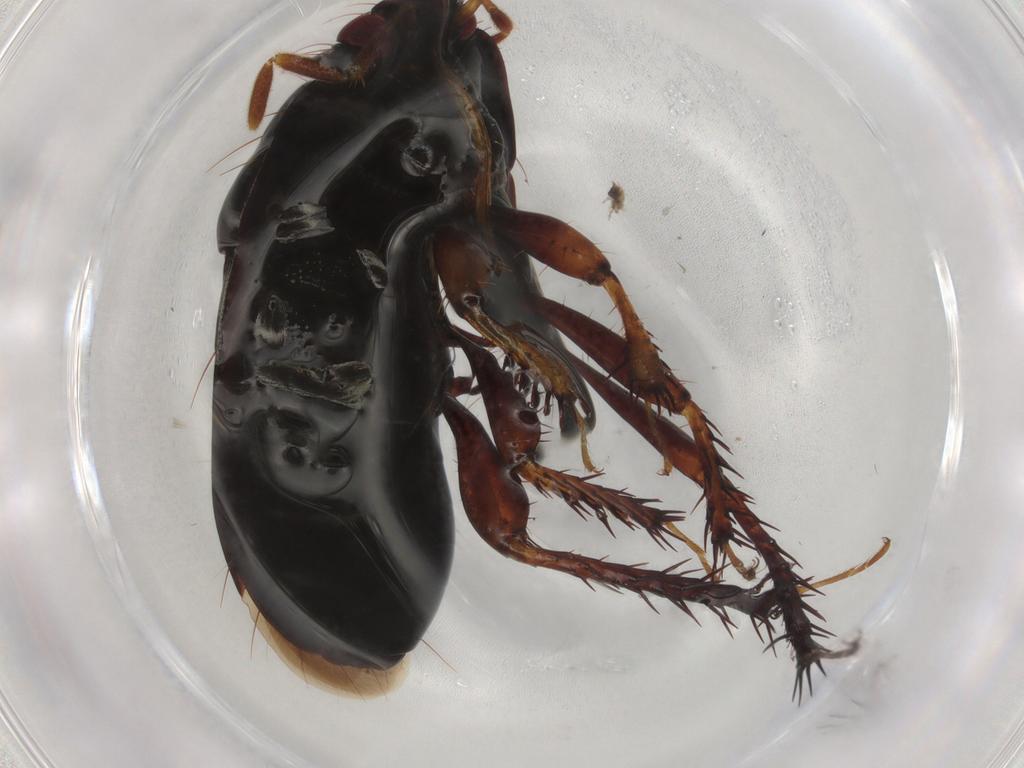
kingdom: Animalia
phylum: Arthropoda
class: Insecta
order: Hemiptera
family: Cydnidae
